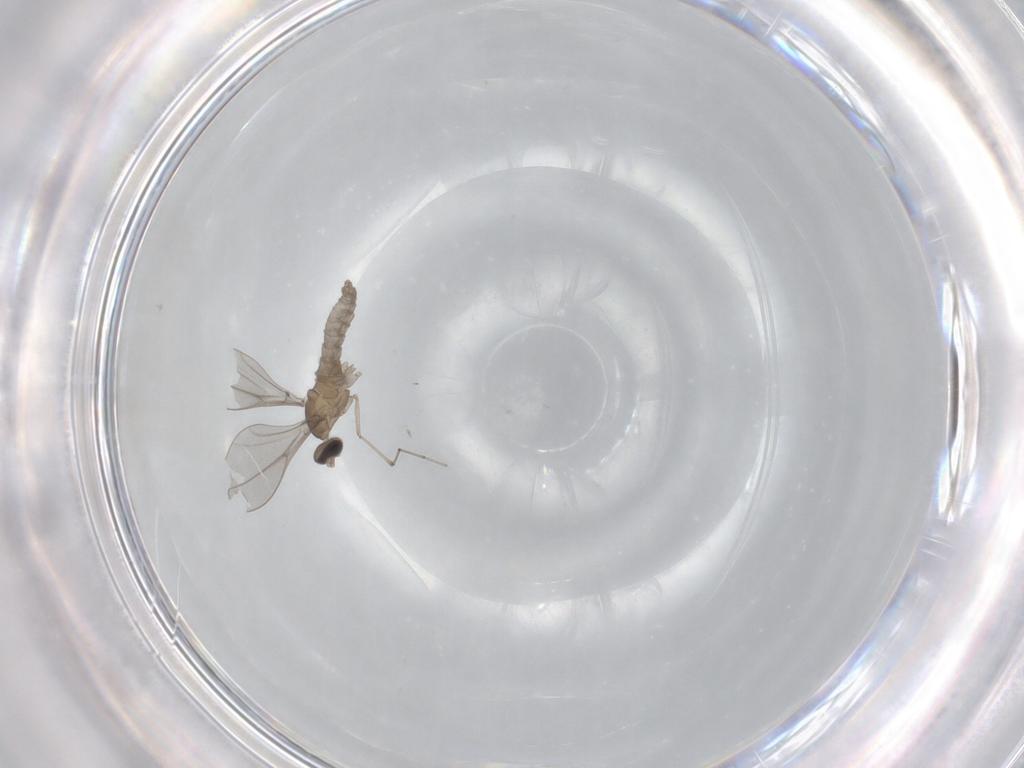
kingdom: Animalia
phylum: Arthropoda
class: Insecta
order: Diptera
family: Cecidomyiidae
